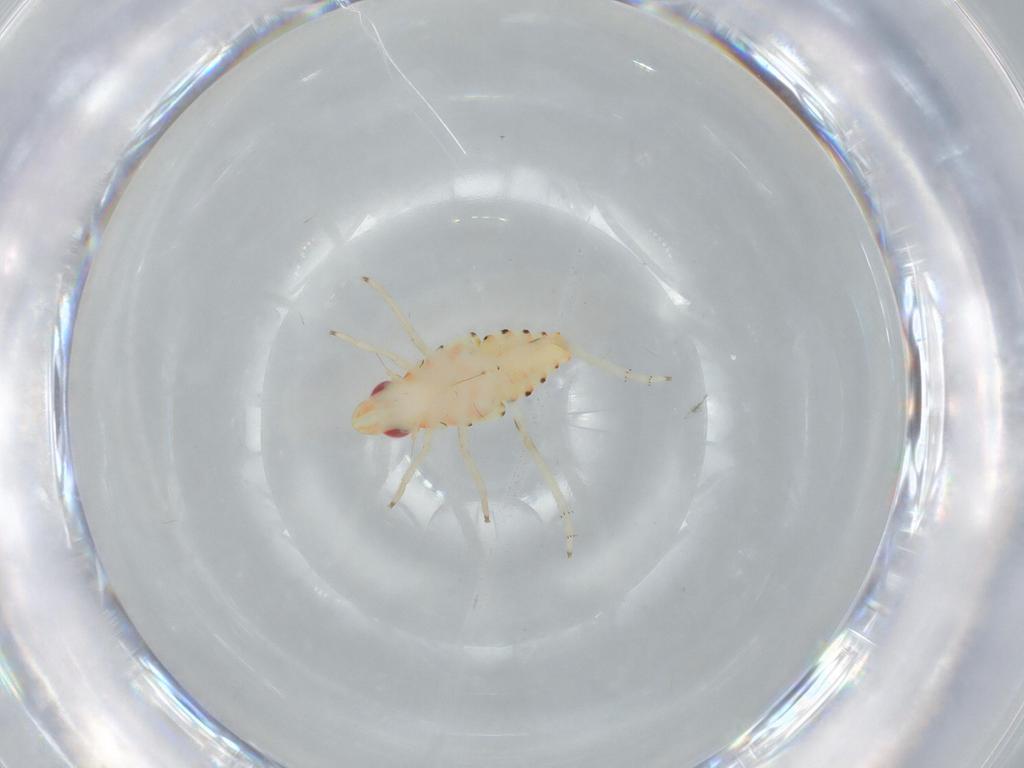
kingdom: Animalia
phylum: Arthropoda
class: Insecta
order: Hemiptera
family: Tropiduchidae
